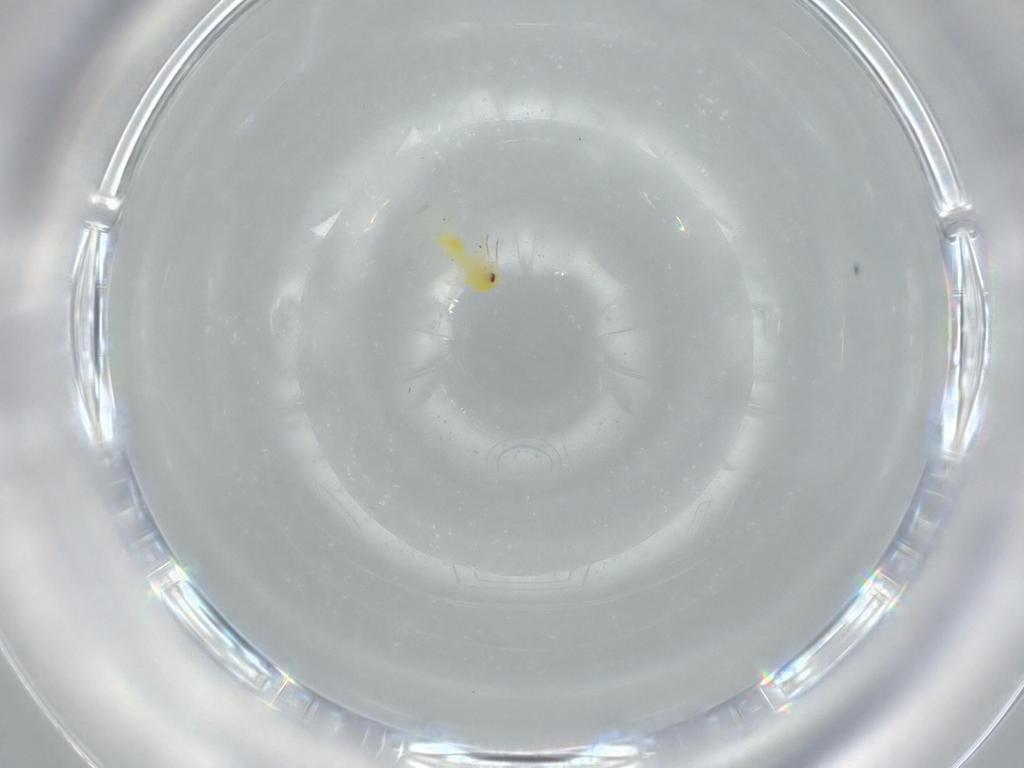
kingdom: Animalia
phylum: Arthropoda
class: Insecta
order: Hemiptera
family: Aleyrodidae
